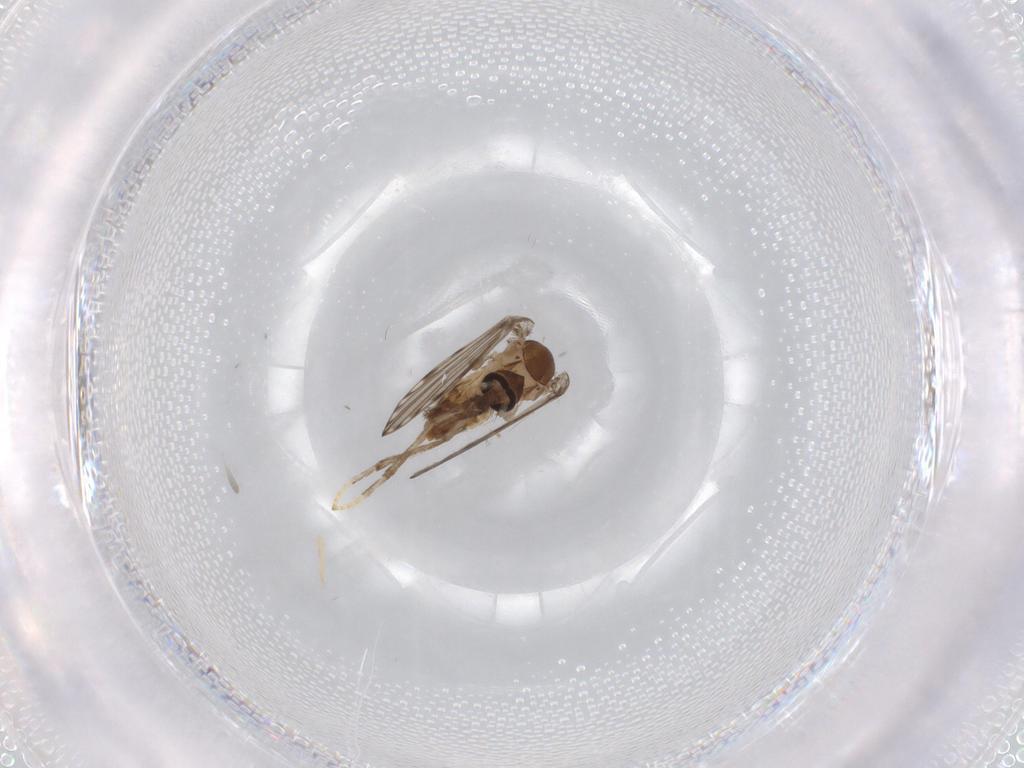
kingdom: Animalia
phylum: Arthropoda
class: Insecta
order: Diptera
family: Psychodidae
